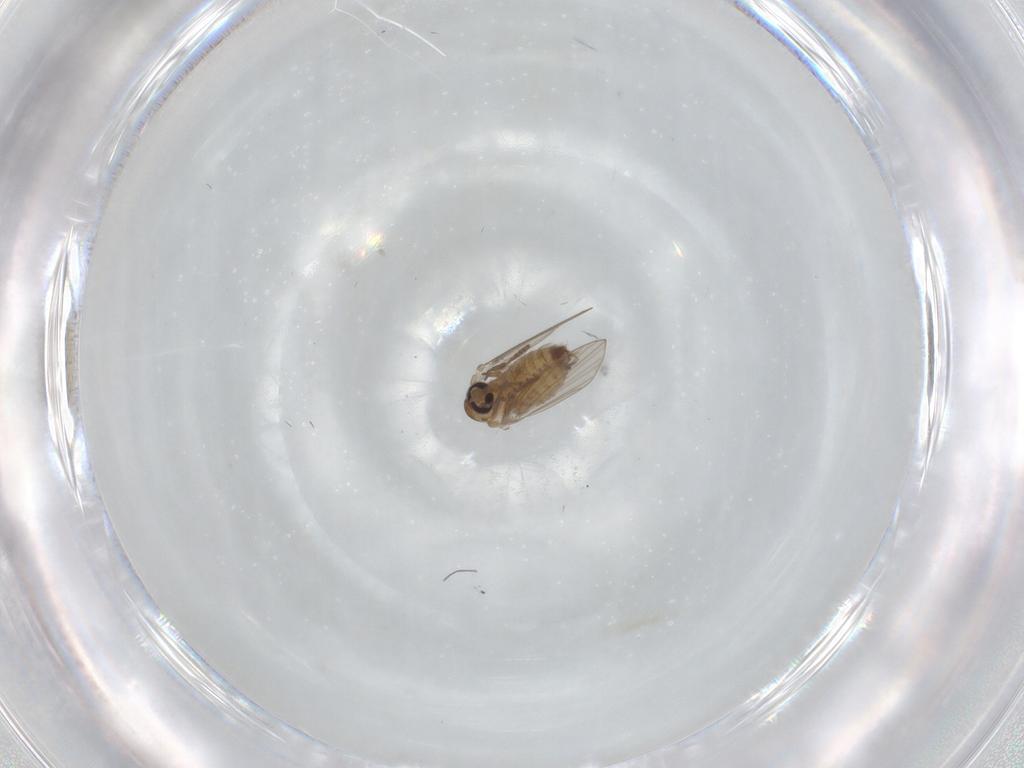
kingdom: Animalia
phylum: Arthropoda
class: Insecta
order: Diptera
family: Psychodidae
